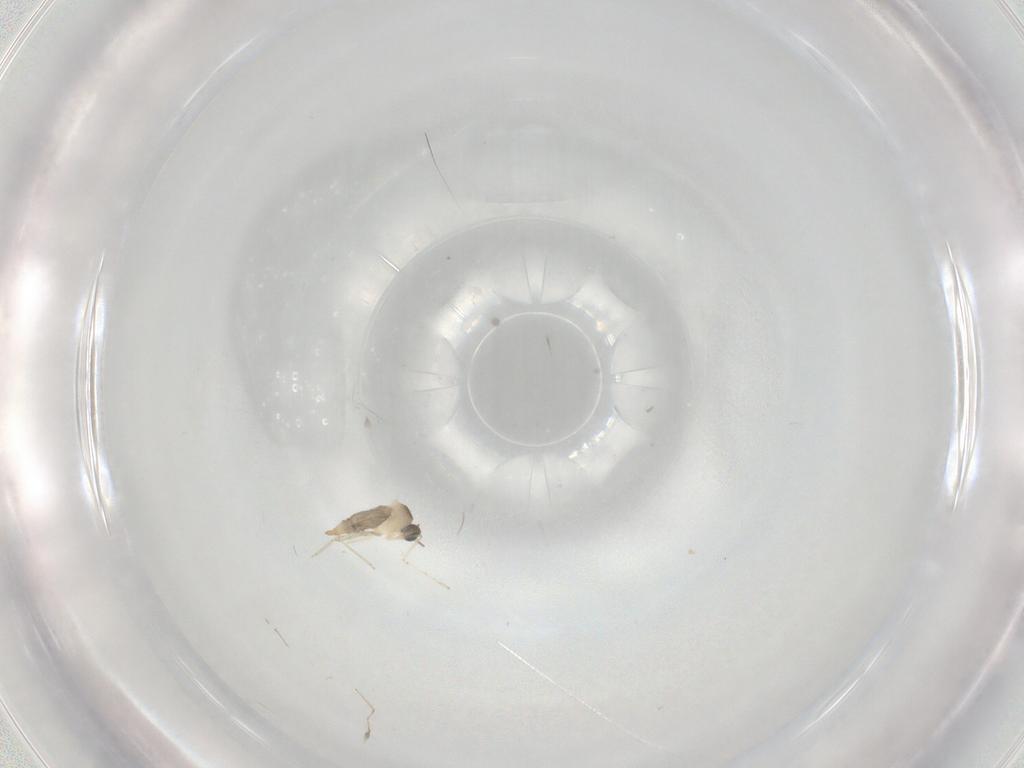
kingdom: Animalia
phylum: Arthropoda
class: Insecta
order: Diptera
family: Cecidomyiidae
